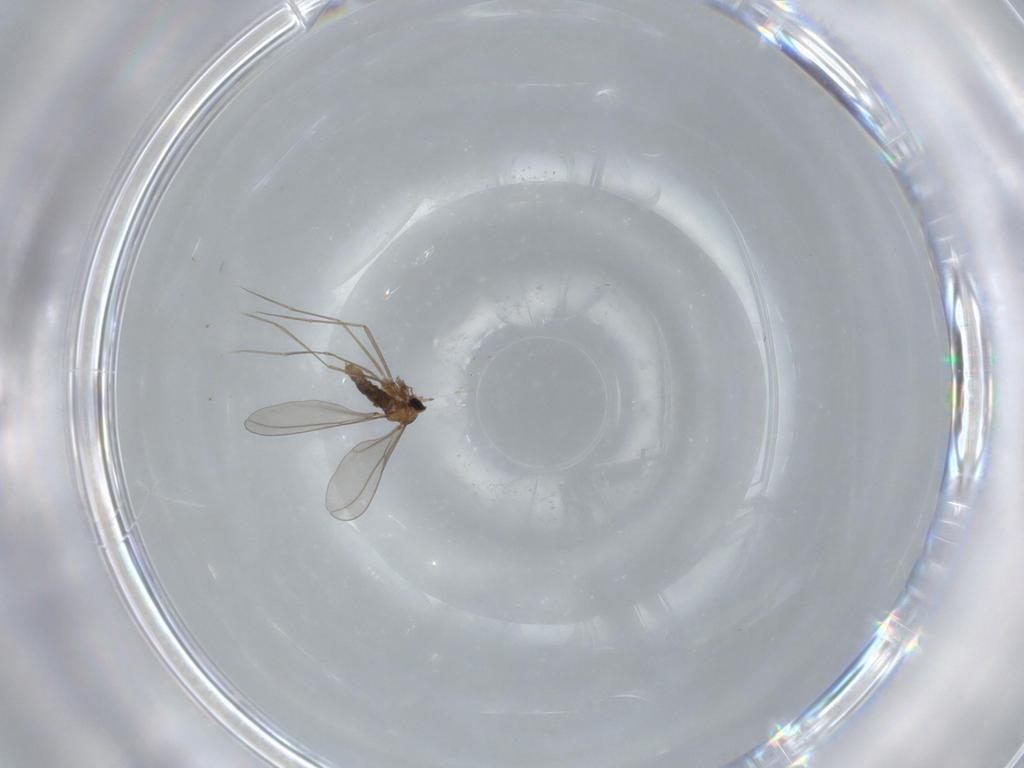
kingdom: Animalia
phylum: Arthropoda
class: Insecta
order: Diptera
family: Cecidomyiidae
